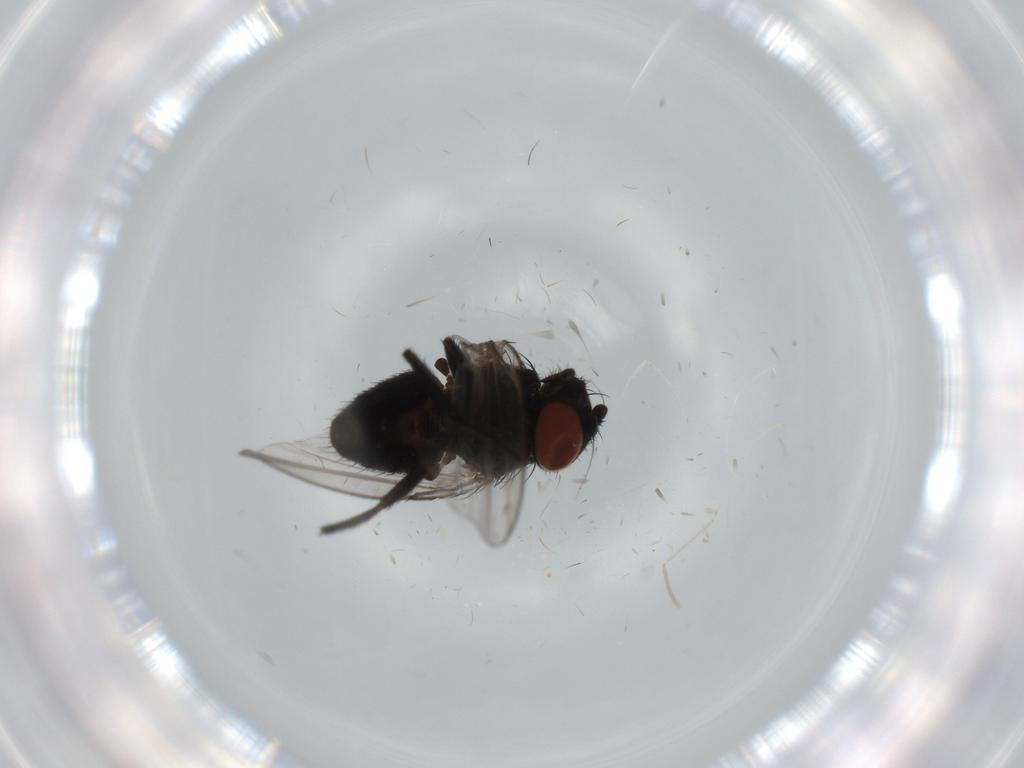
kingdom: Animalia
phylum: Arthropoda
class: Insecta
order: Diptera
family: Milichiidae
